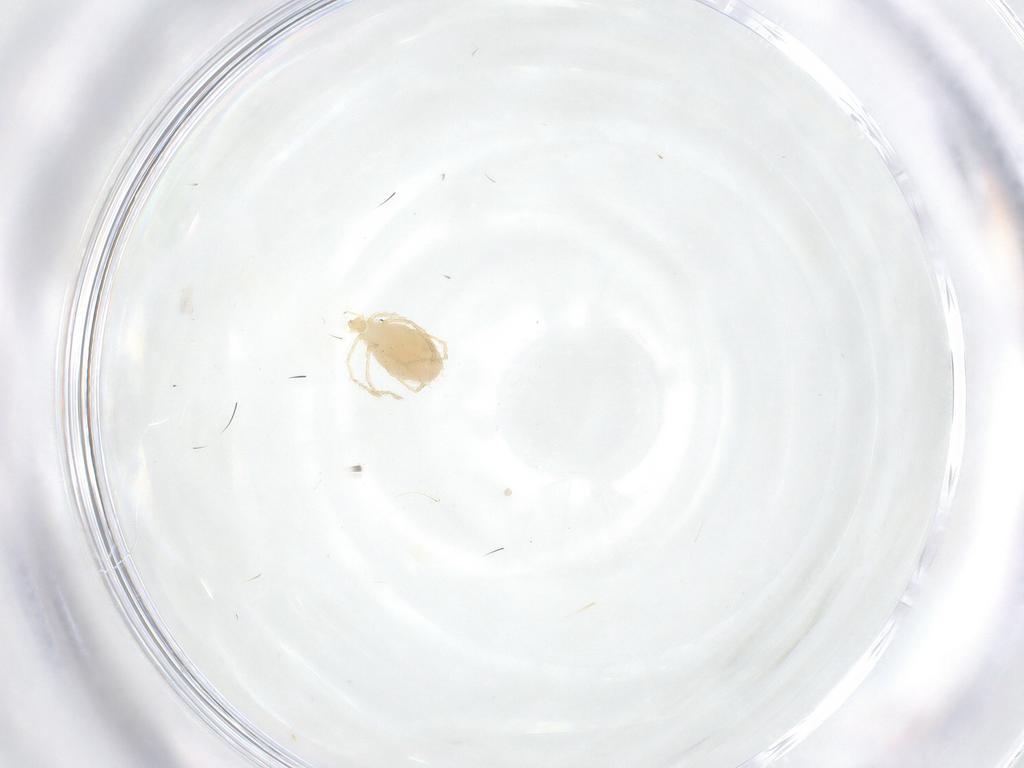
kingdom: Animalia
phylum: Arthropoda
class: Arachnida
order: Trombidiformes
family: Erythraeidae
